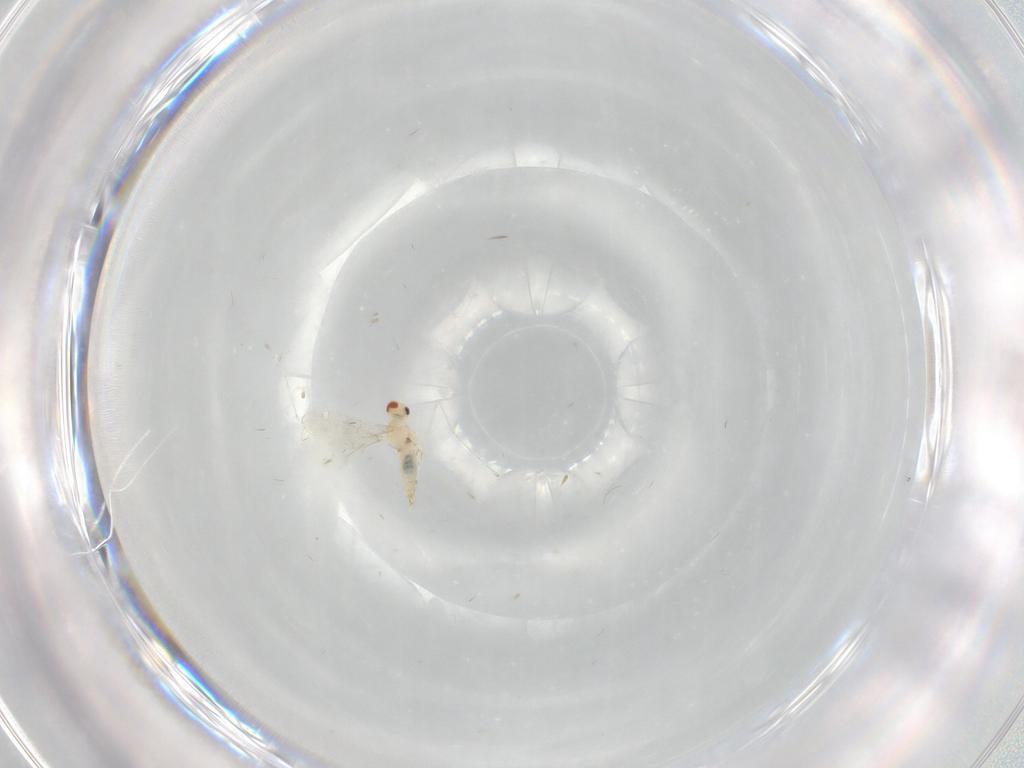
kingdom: Animalia
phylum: Arthropoda
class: Insecta
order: Diptera
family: Cecidomyiidae
